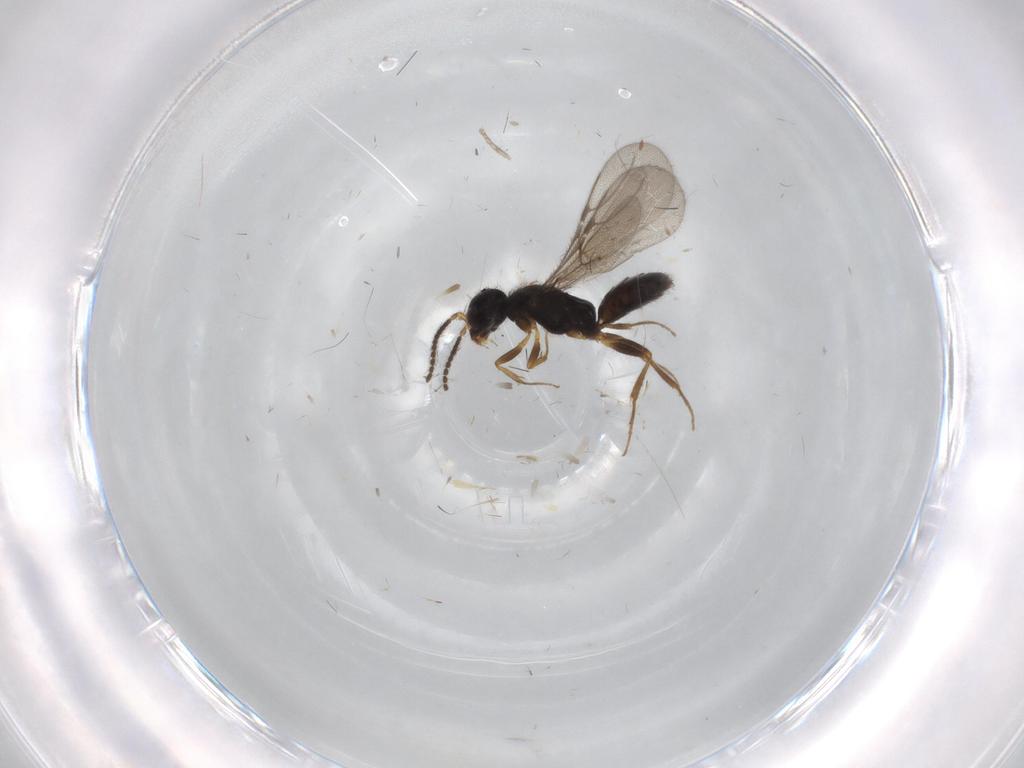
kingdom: Animalia
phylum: Arthropoda
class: Insecta
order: Hymenoptera
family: Bethylidae
